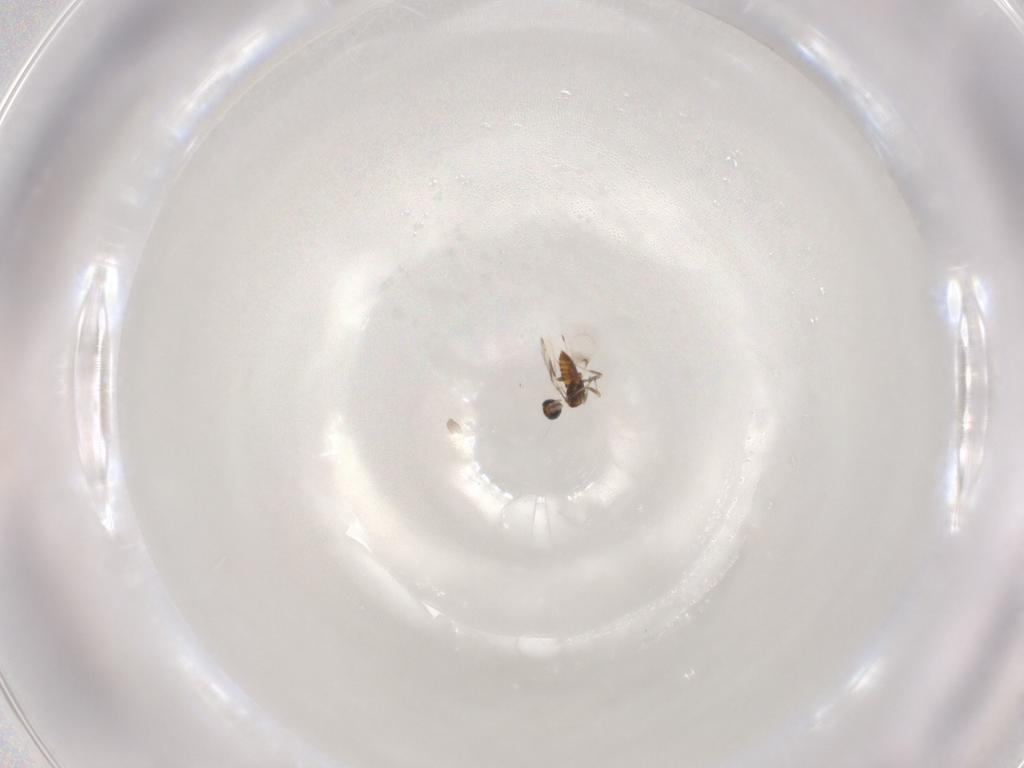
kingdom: Animalia
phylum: Arthropoda
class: Insecta
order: Hymenoptera
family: Trichogrammatidae
